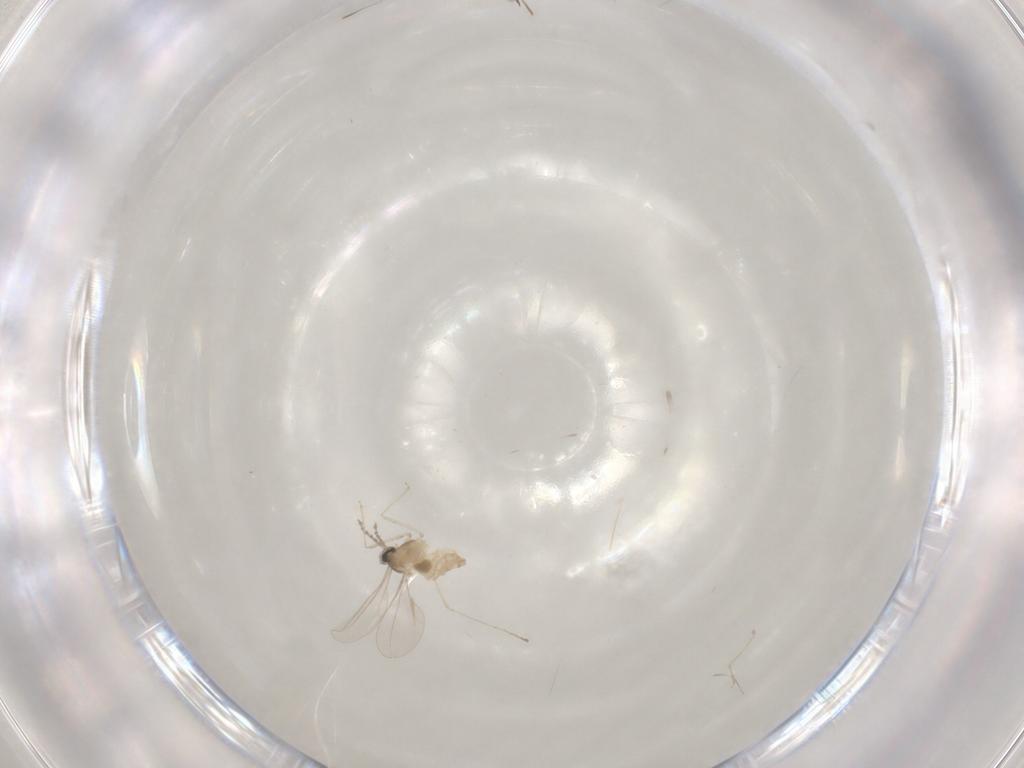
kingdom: Animalia
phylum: Arthropoda
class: Insecta
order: Diptera
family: Cecidomyiidae
